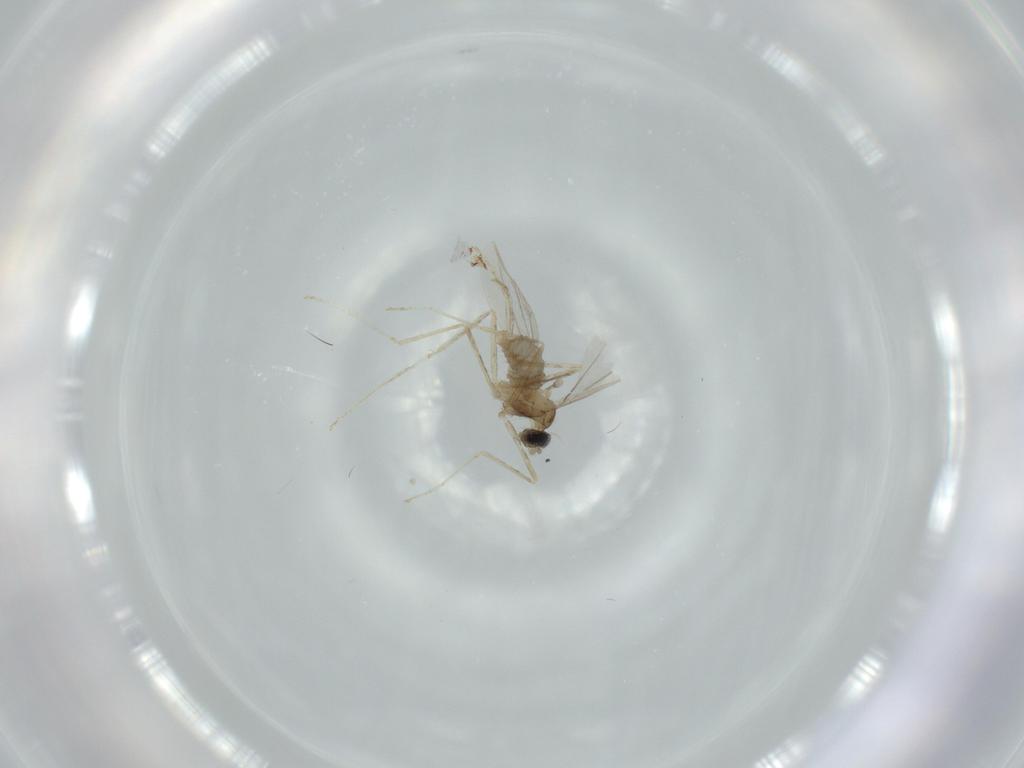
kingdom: Animalia
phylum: Arthropoda
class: Insecta
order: Diptera
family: Cecidomyiidae
